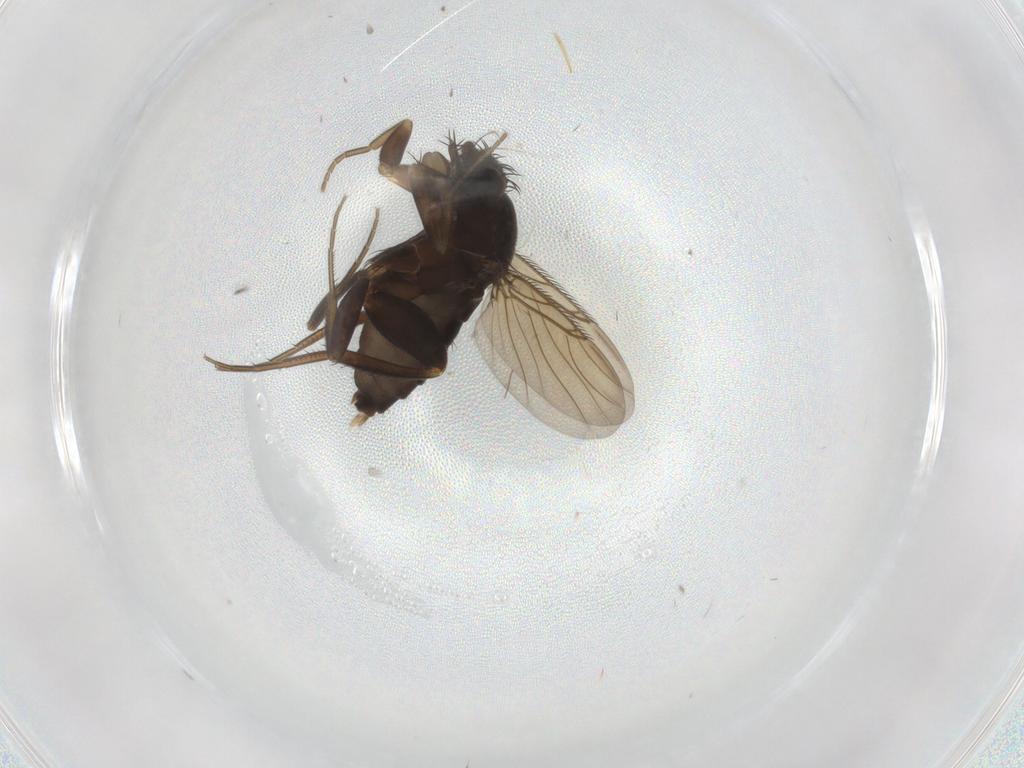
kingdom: Animalia
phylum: Arthropoda
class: Insecta
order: Diptera
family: Phoridae
